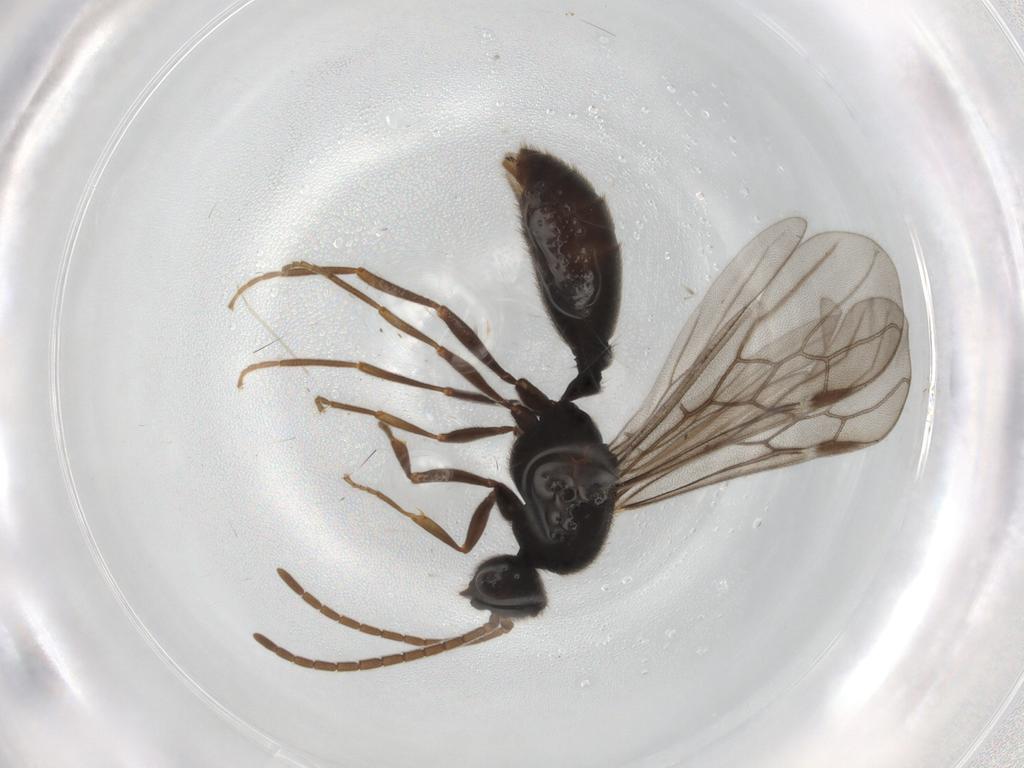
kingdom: Animalia
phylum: Arthropoda
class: Insecta
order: Hymenoptera
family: Formicidae
